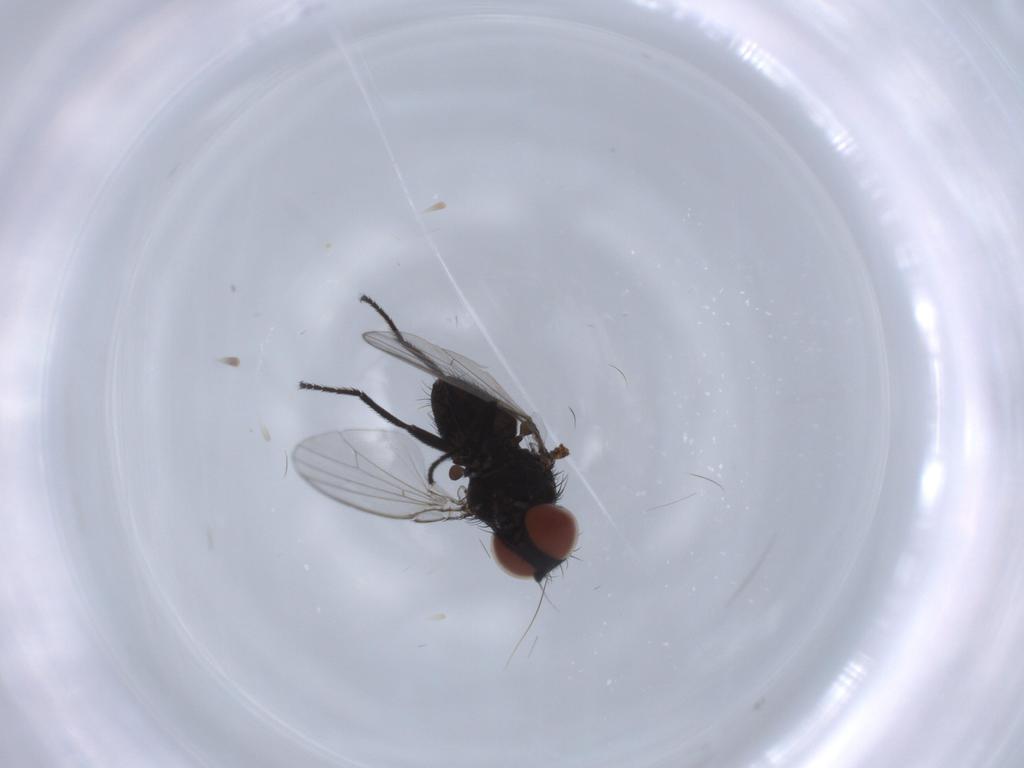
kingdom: Animalia
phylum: Arthropoda
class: Insecta
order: Diptera
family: Milichiidae
